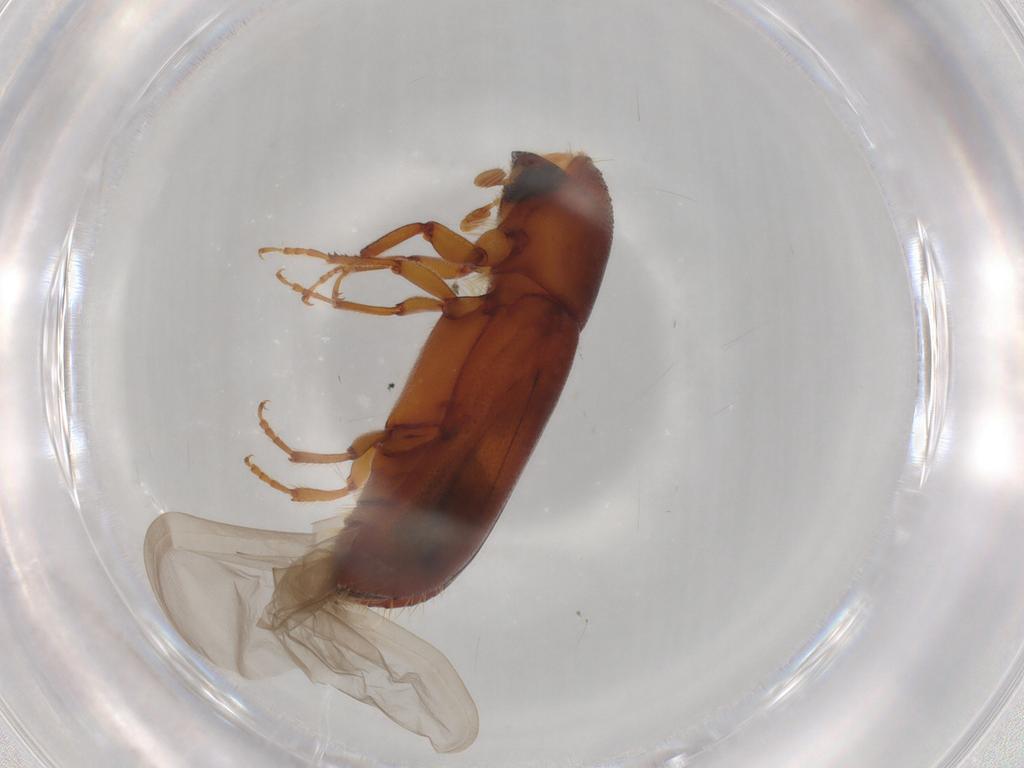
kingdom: Animalia
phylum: Arthropoda
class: Insecta
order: Coleoptera
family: Curculionidae
